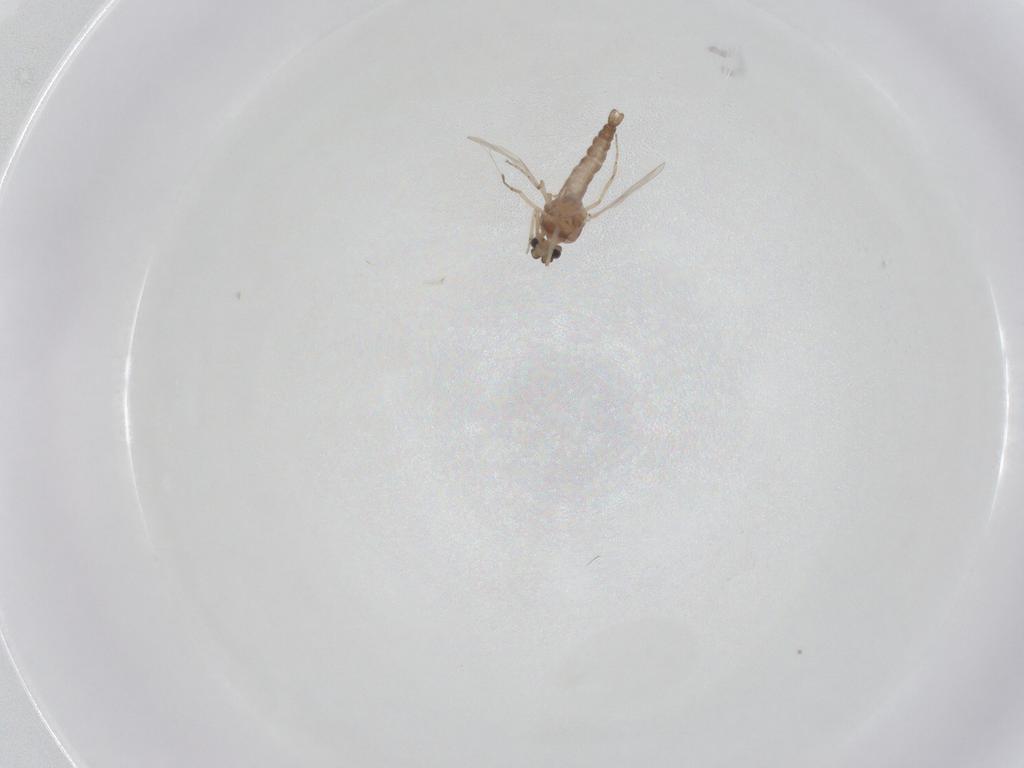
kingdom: Animalia
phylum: Arthropoda
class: Insecta
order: Diptera
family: Ceratopogonidae
